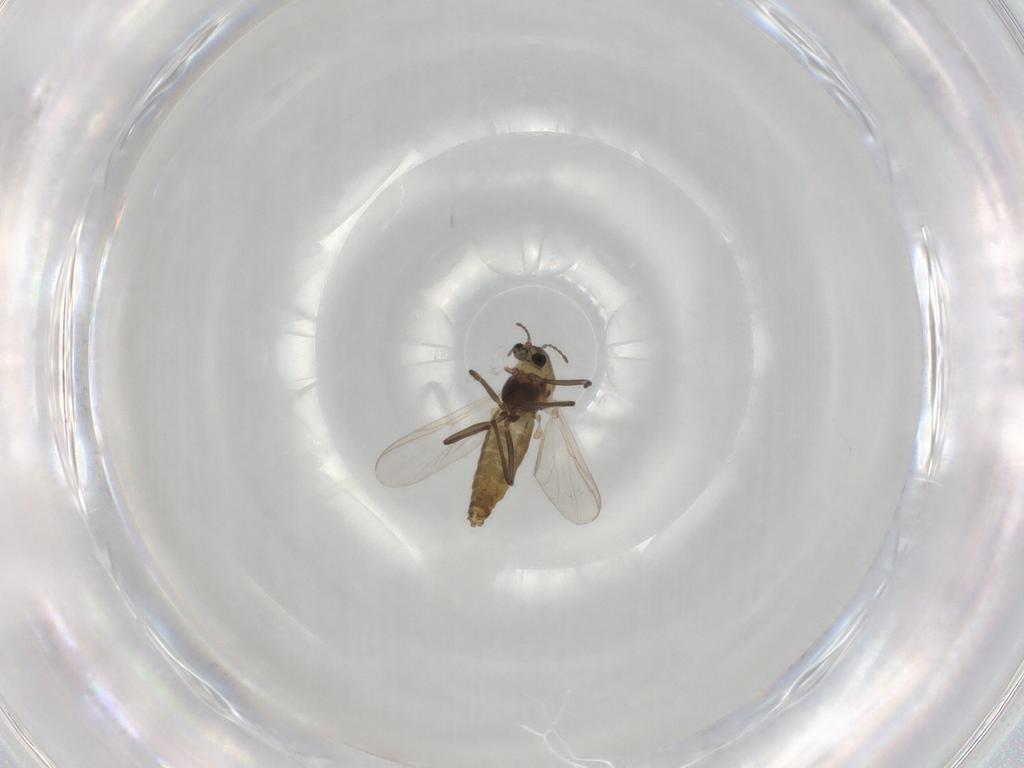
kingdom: Animalia
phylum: Arthropoda
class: Insecta
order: Diptera
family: Chironomidae
